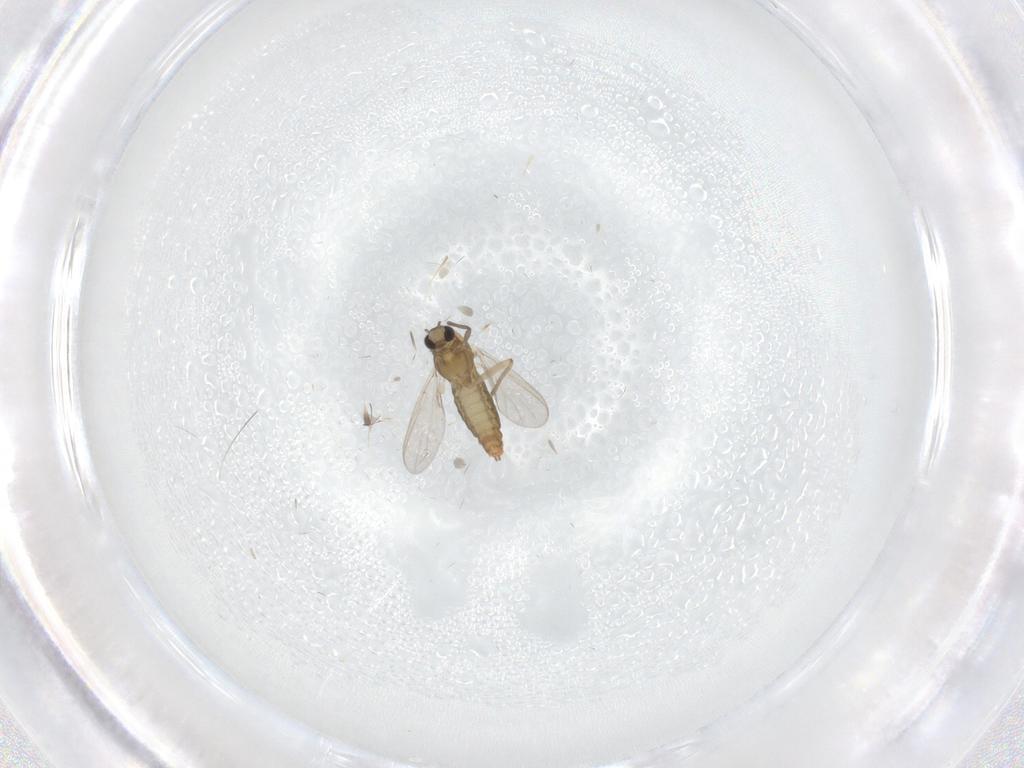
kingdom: Animalia
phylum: Arthropoda
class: Insecta
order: Diptera
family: Chironomidae
